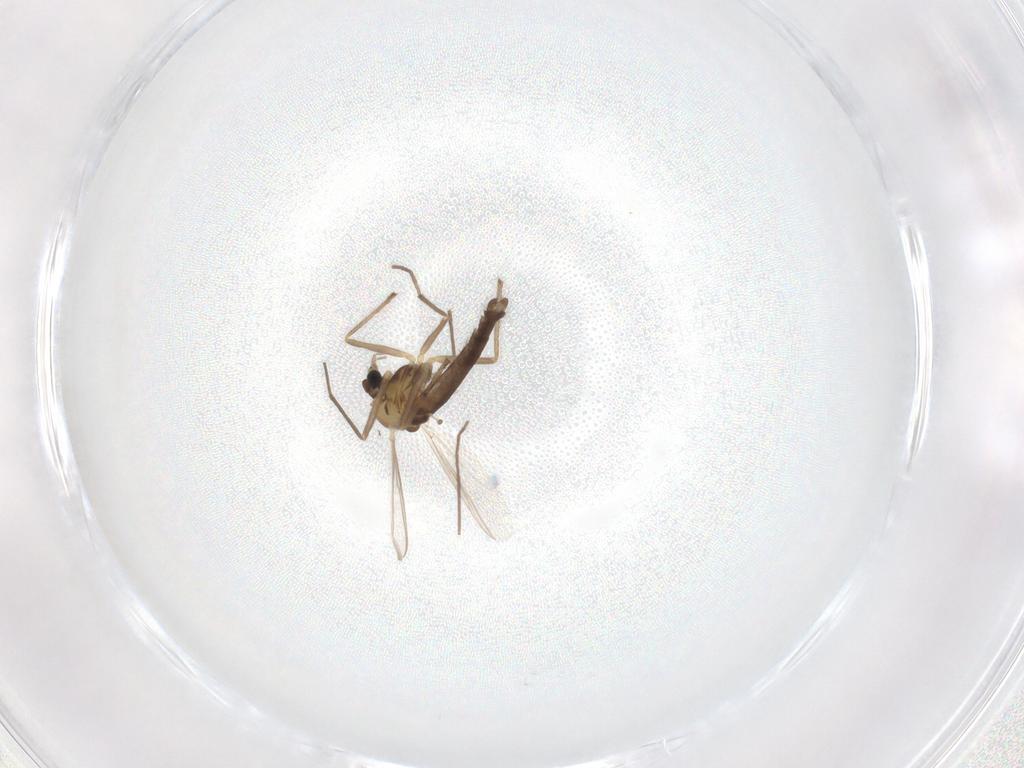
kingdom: Animalia
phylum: Arthropoda
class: Insecta
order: Diptera
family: Chironomidae
